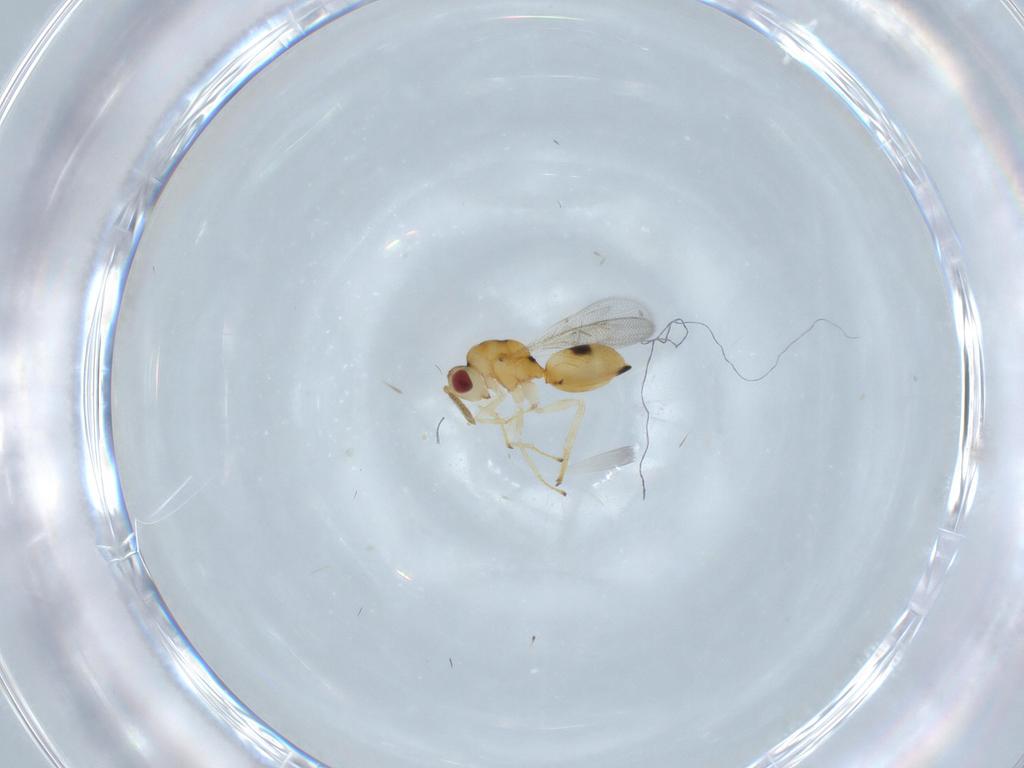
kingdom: Animalia
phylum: Arthropoda
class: Insecta
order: Hymenoptera
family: Eurytomidae
